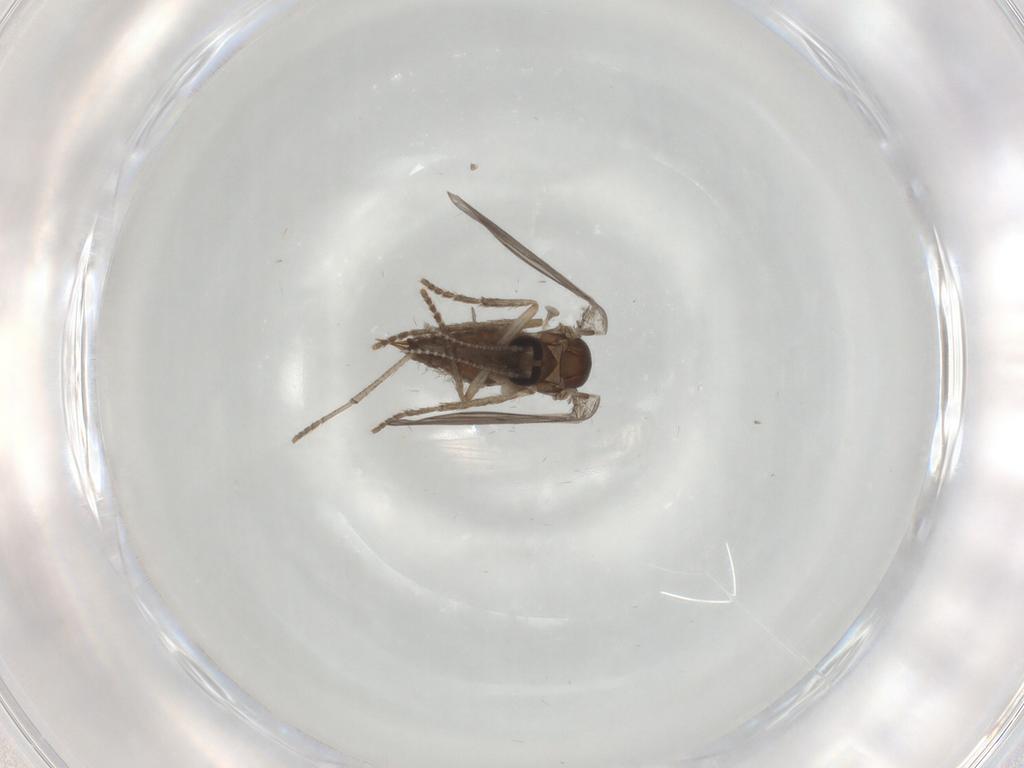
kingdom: Animalia
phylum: Arthropoda
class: Insecta
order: Diptera
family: Psychodidae
